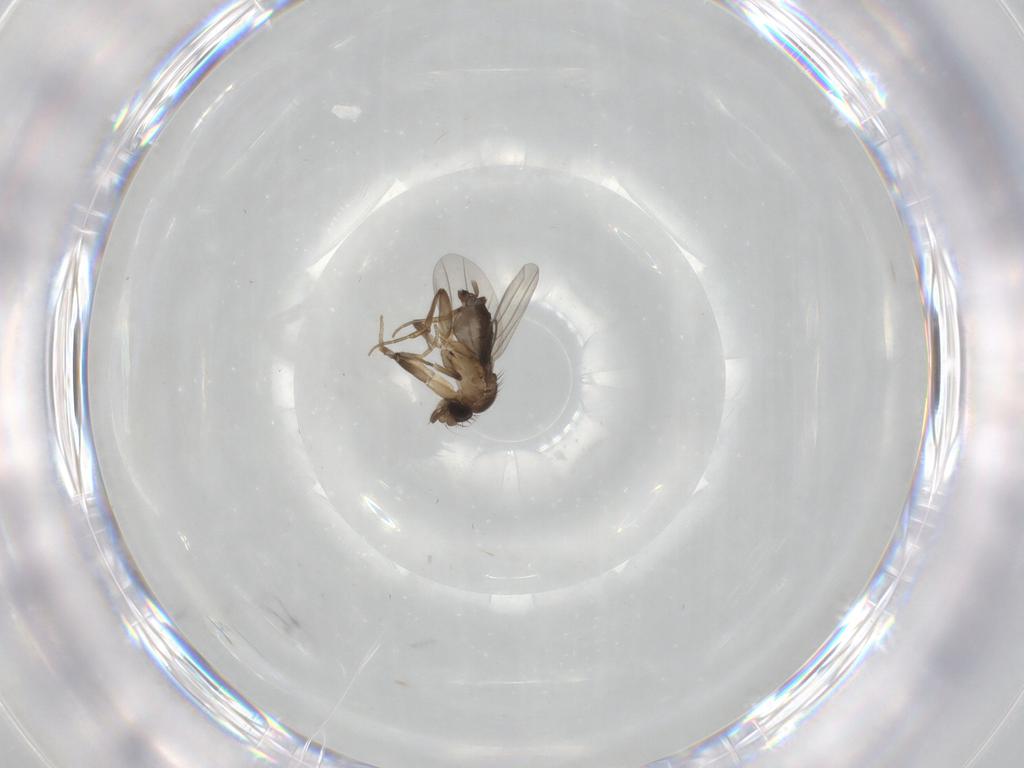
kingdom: Animalia
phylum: Arthropoda
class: Insecta
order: Diptera
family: Phoridae
